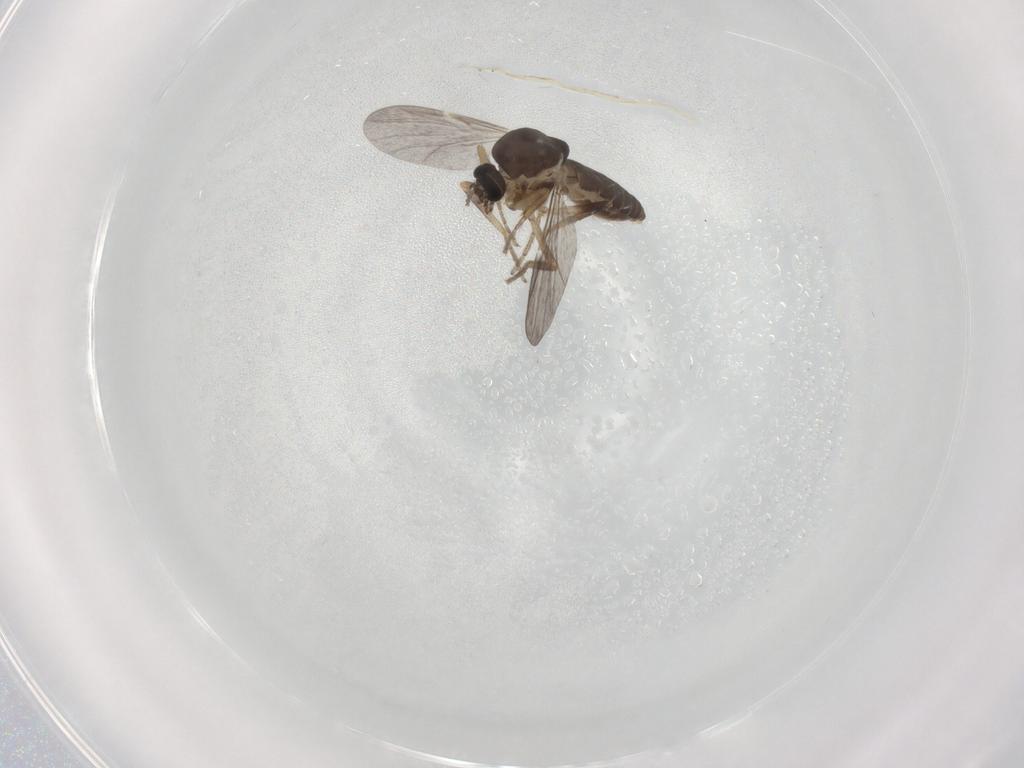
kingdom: Animalia
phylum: Arthropoda
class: Insecta
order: Diptera
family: Ceratopogonidae
